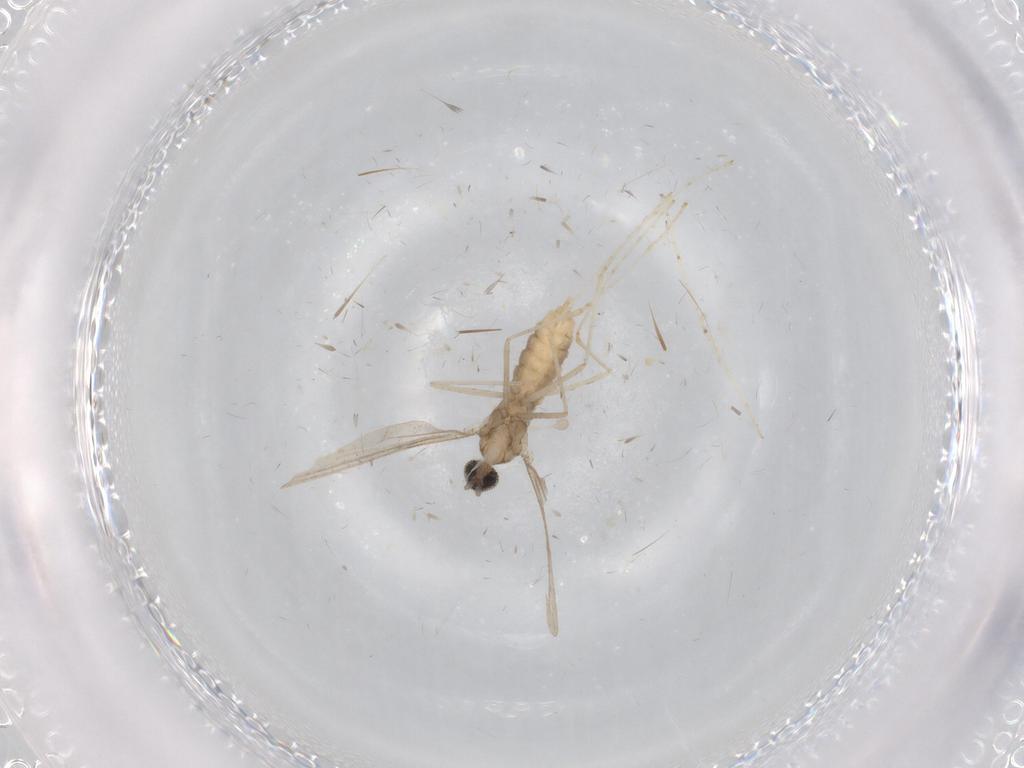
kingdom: Animalia
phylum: Arthropoda
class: Insecta
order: Diptera
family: Cecidomyiidae
